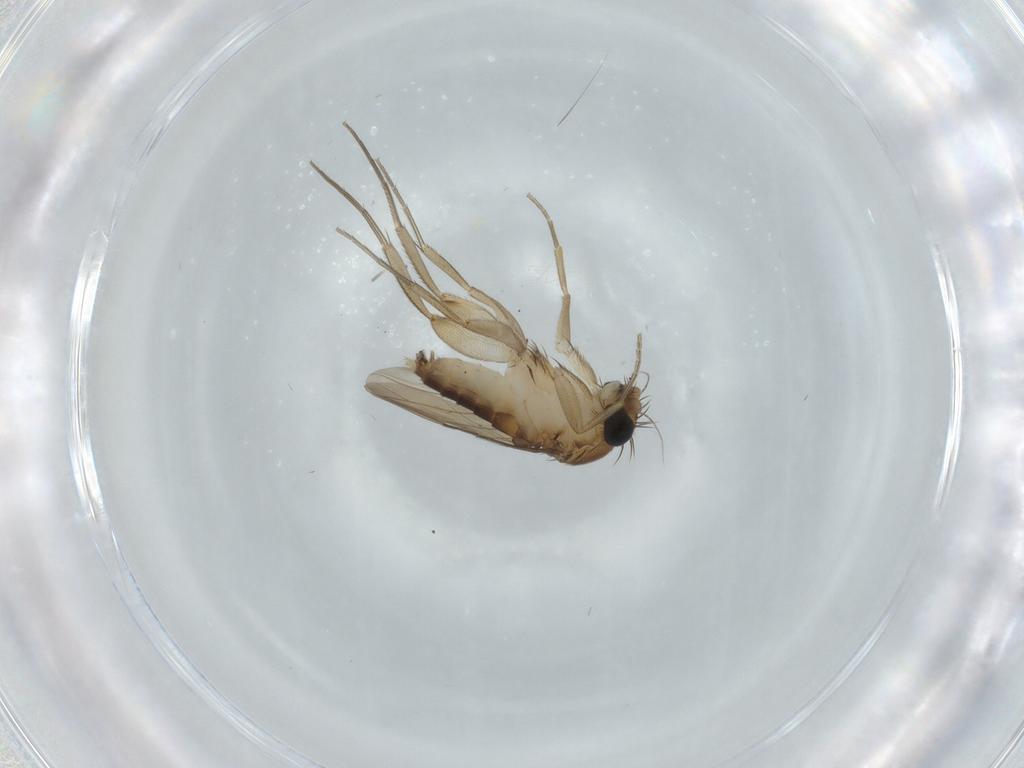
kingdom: Animalia
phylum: Arthropoda
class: Insecta
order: Diptera
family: Phoridae
